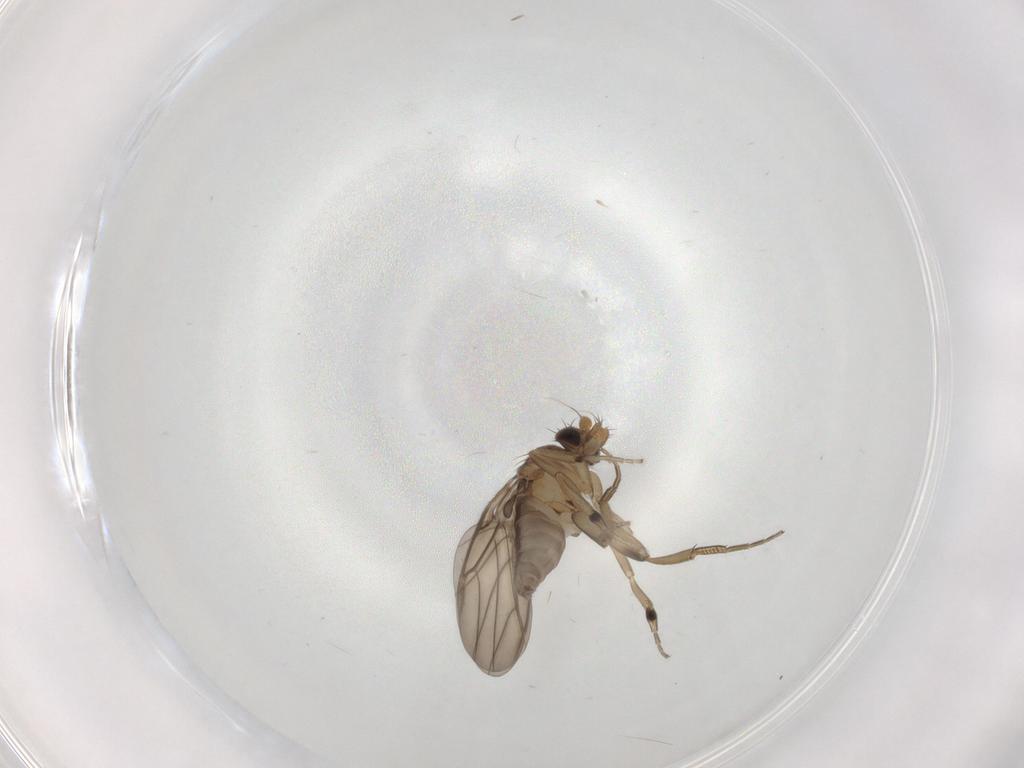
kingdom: Animalia
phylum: Arthropoda
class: Insecta
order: Diptera
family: Phoridae
